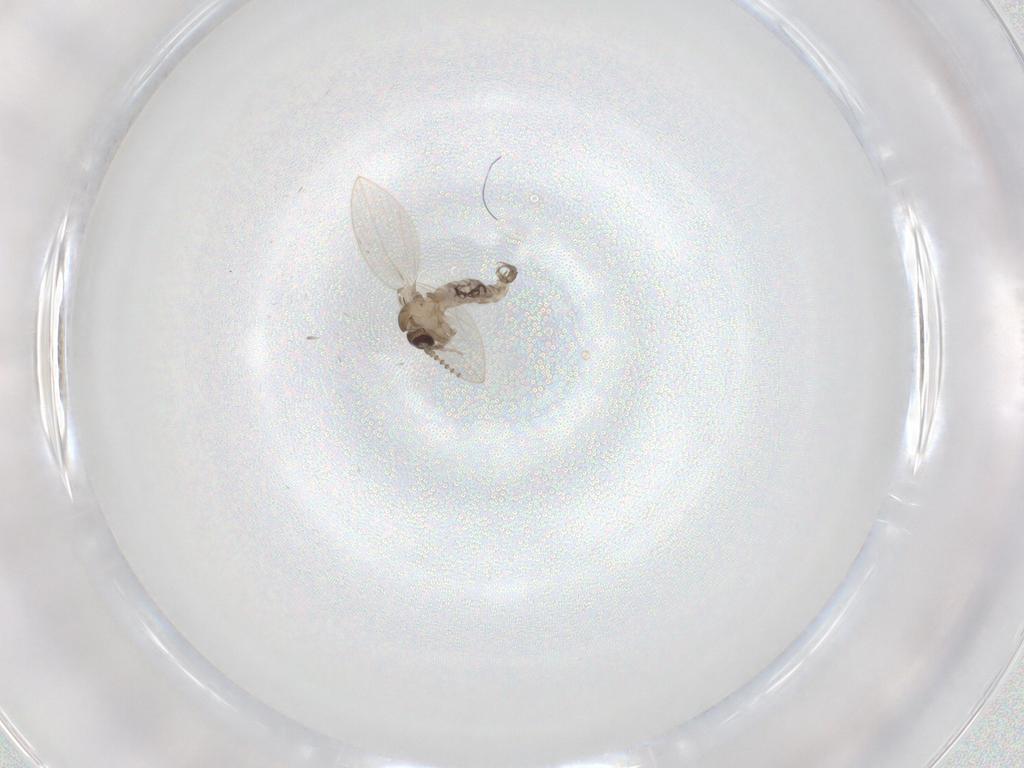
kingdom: Animalia
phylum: Arthropoda
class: Insecta
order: Diptera
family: Psychodidae
